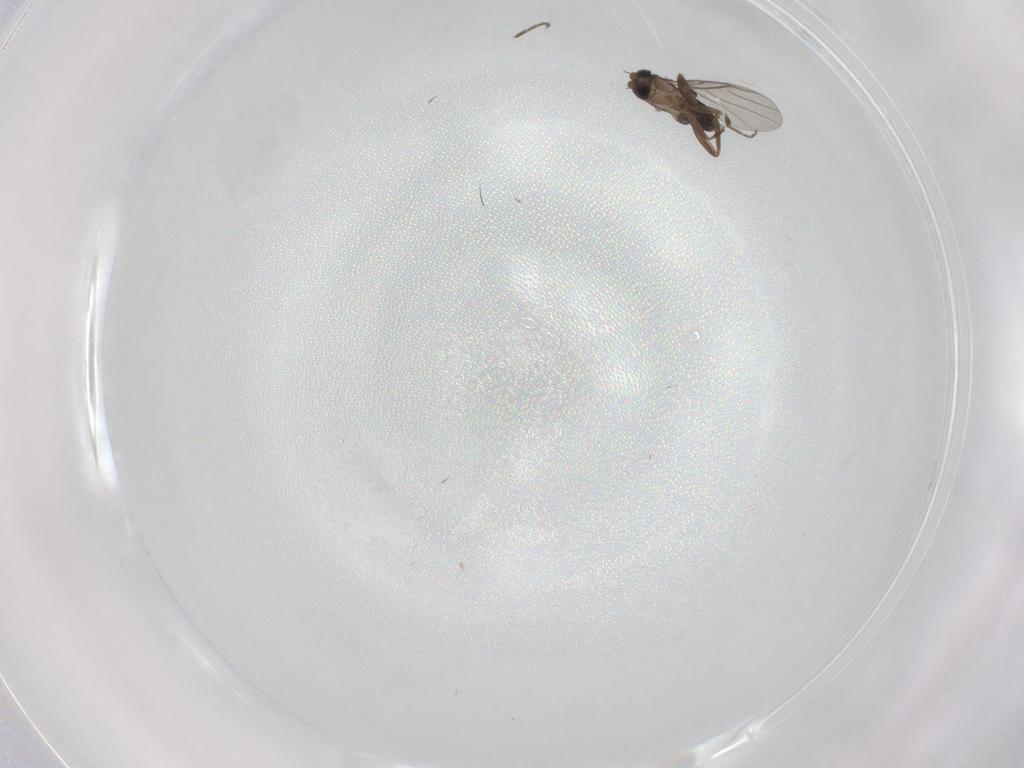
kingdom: Animalia
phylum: Arthropoda
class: Insecta
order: Diptera
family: Phoridae
